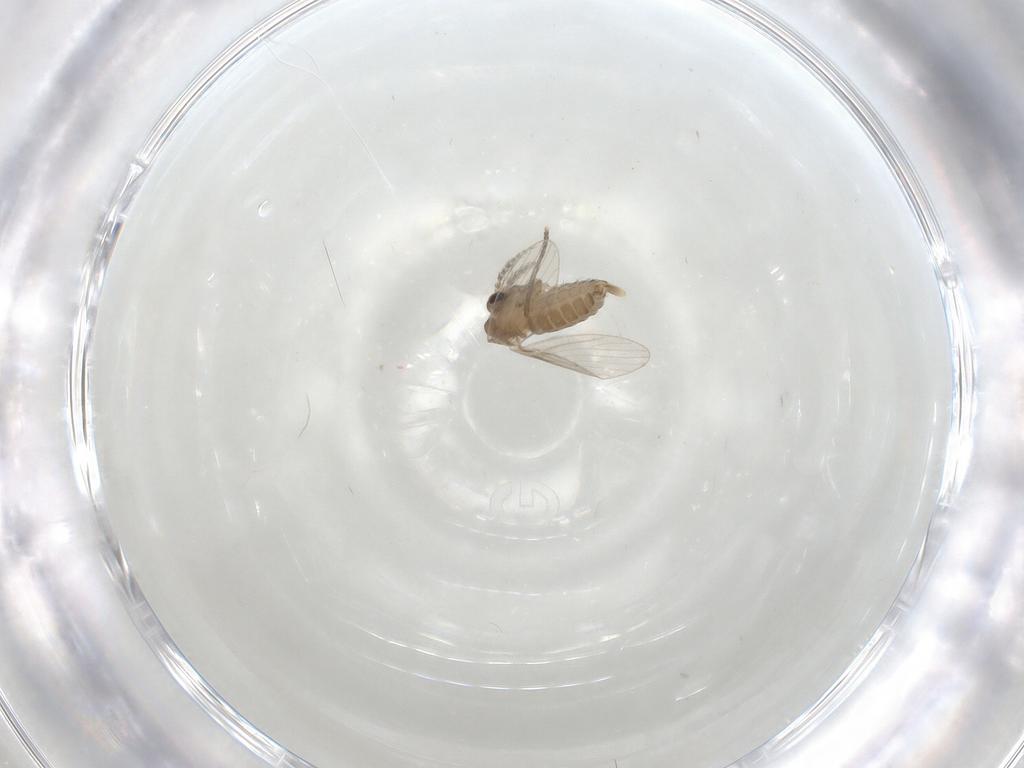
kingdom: Animalia
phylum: Arthropoda
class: Insecta
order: Diptera
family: Psychodidae
